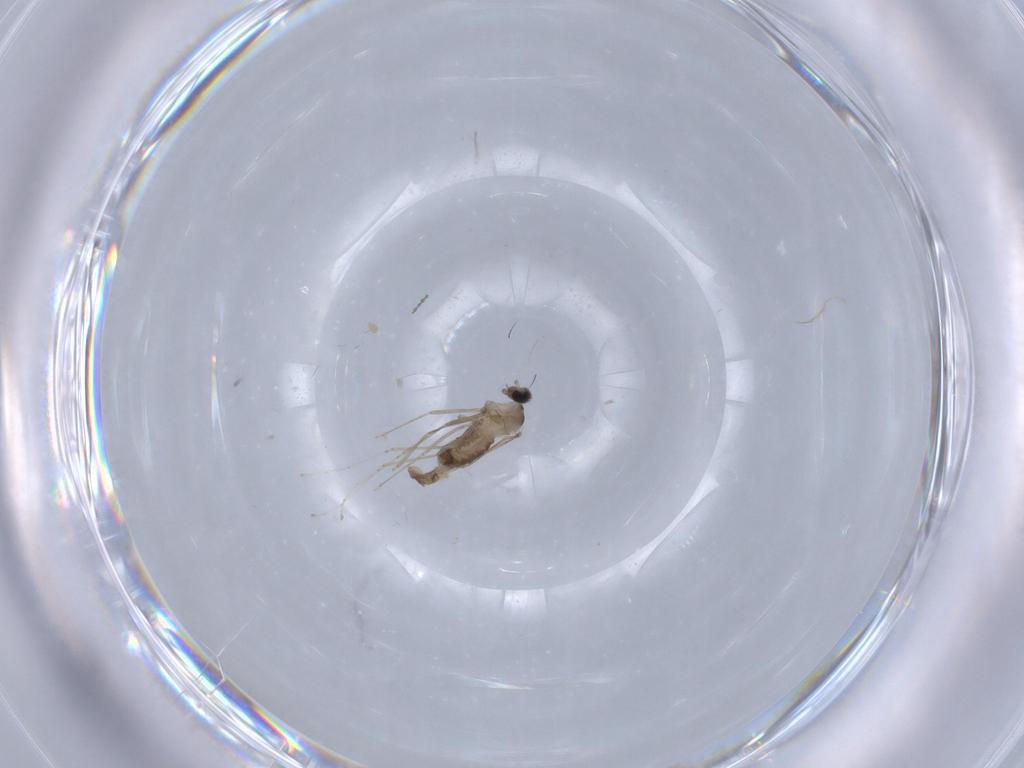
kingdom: Animalia
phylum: Arthropoda
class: Insecta
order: Diptera
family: Cecidomyiidae
